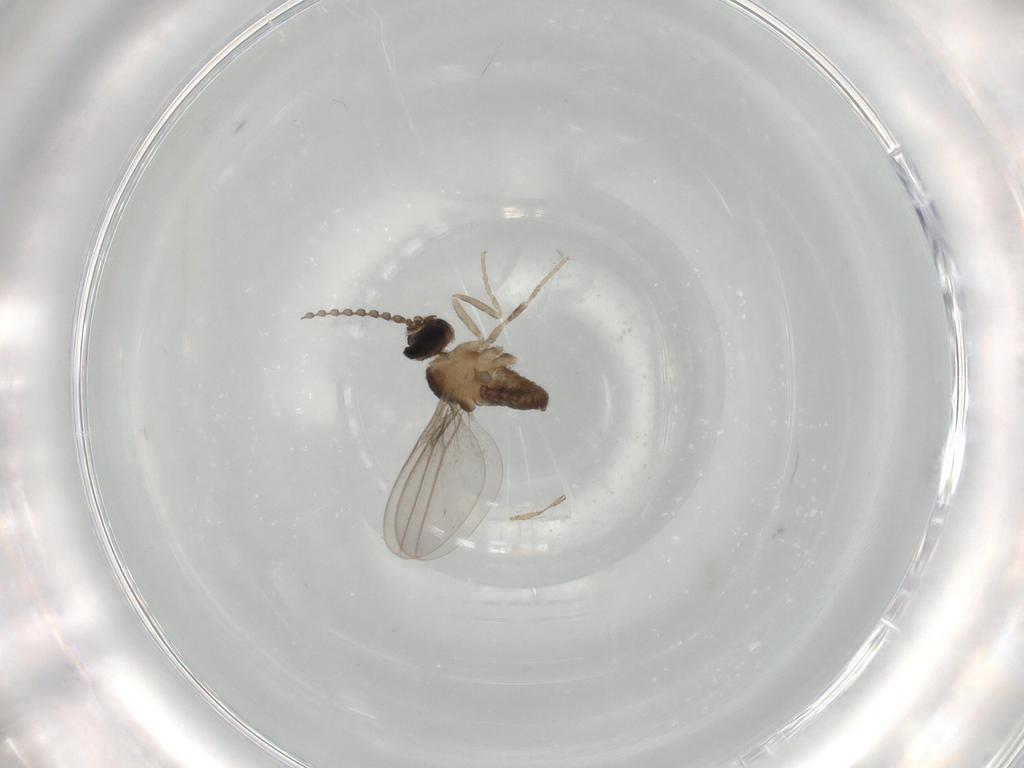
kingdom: Animalia
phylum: Arthropoda
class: Insecta
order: Diptera
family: Cecidomyiidae
